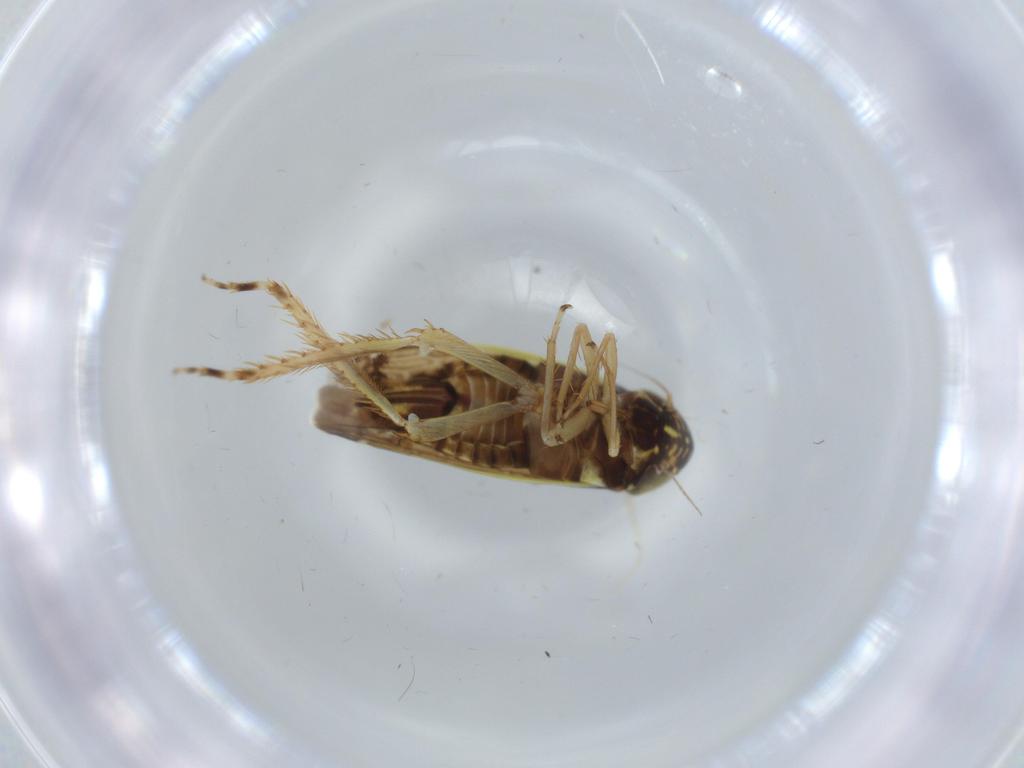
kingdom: Animalia
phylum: Arthropoda
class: Insecta
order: Hemiptera
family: Cicadellidae
